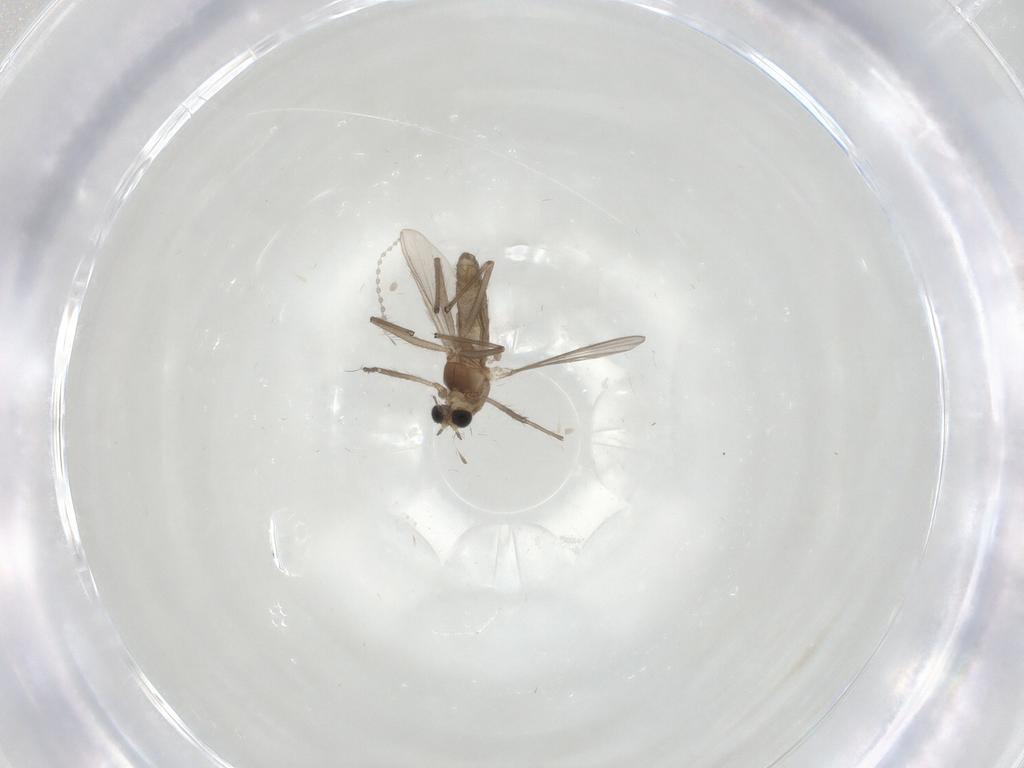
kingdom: Animalia
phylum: Arthropoda
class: Insecta
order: Diptera
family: Chironomidae
